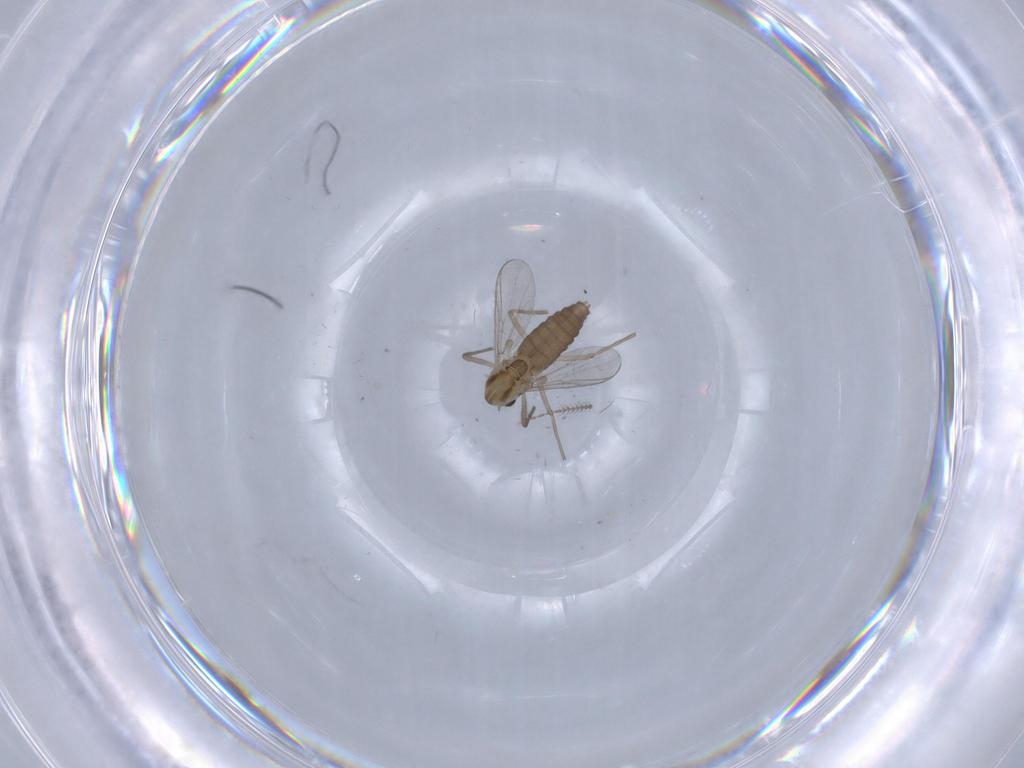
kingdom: Animalia
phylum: Arthropoda
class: Insecta
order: Diptera
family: Chironomidae
